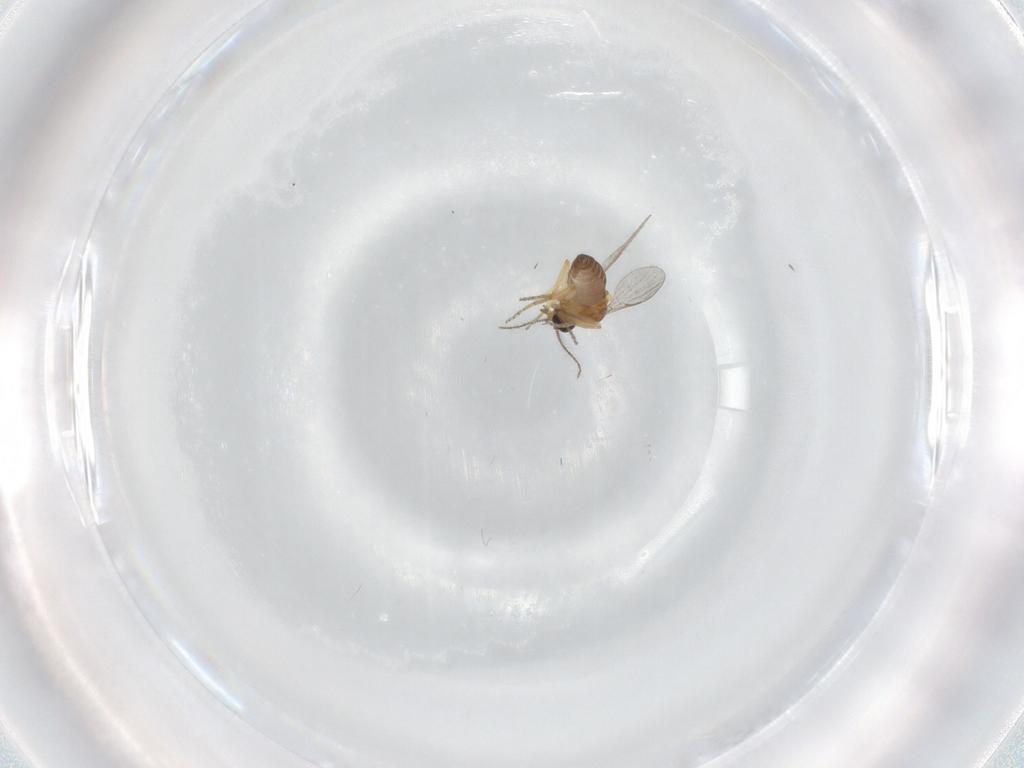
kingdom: Animalia
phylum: Arthropoda
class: Insecta
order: Diptera
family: Ceratopogonidae
